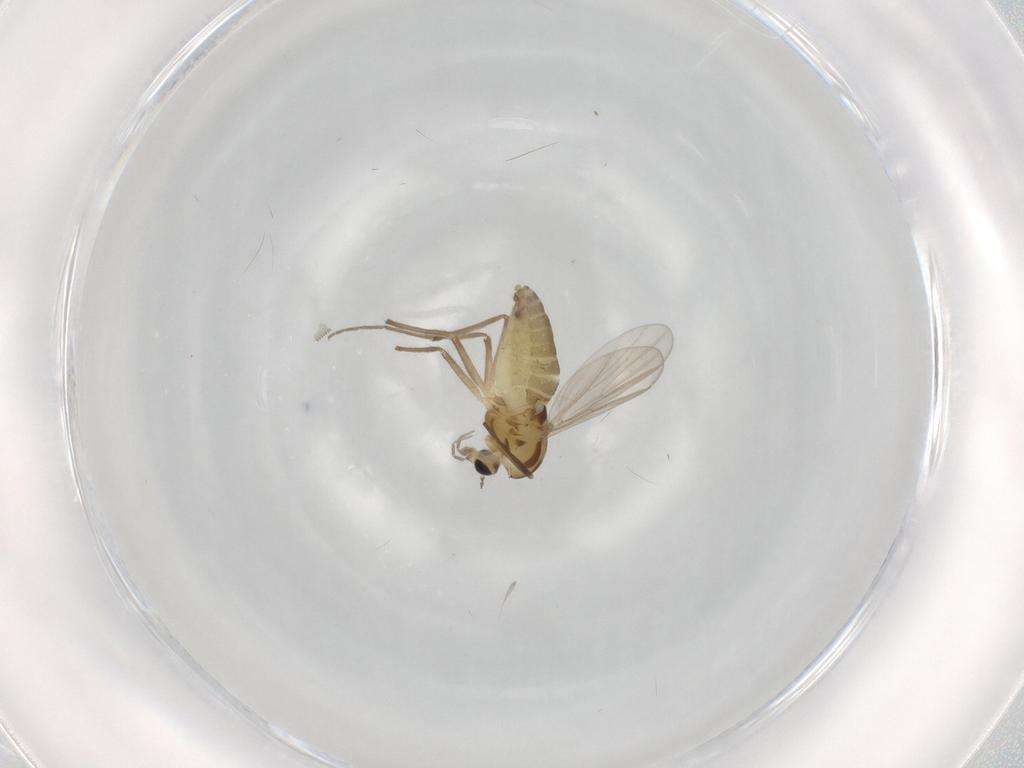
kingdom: Animalia
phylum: Arthropoda
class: Insecta
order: Diptera
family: Chironomidae
